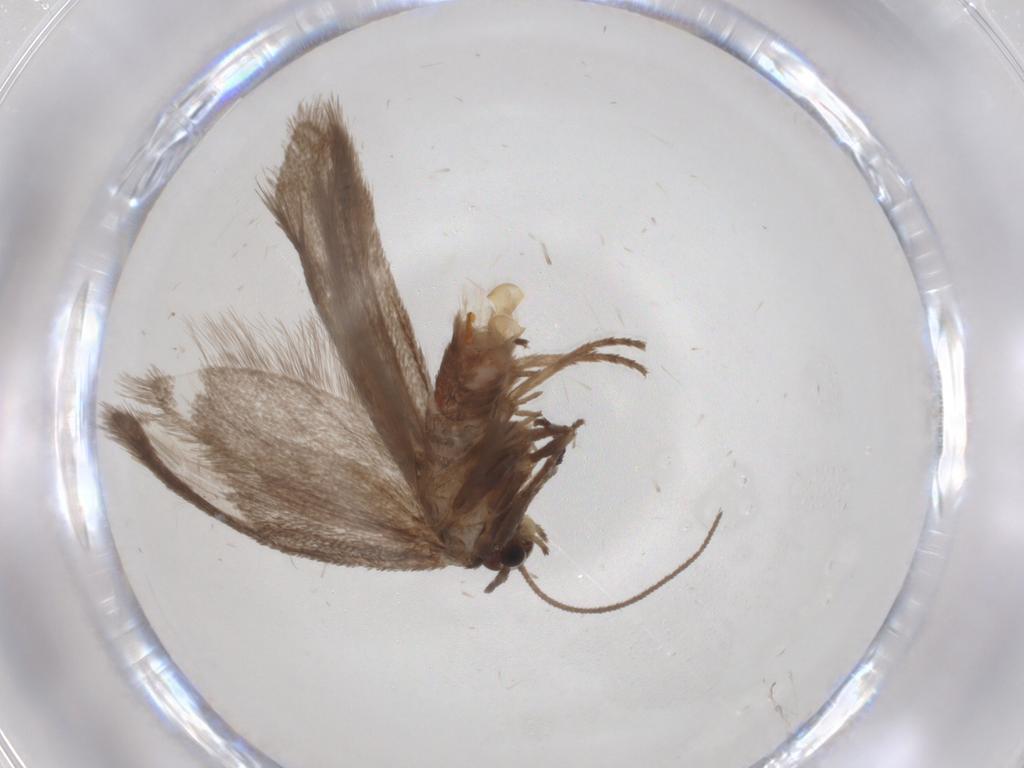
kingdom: Animalia
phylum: Arthropoda
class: Insecta
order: Lepidoptera
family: Limacodidae
